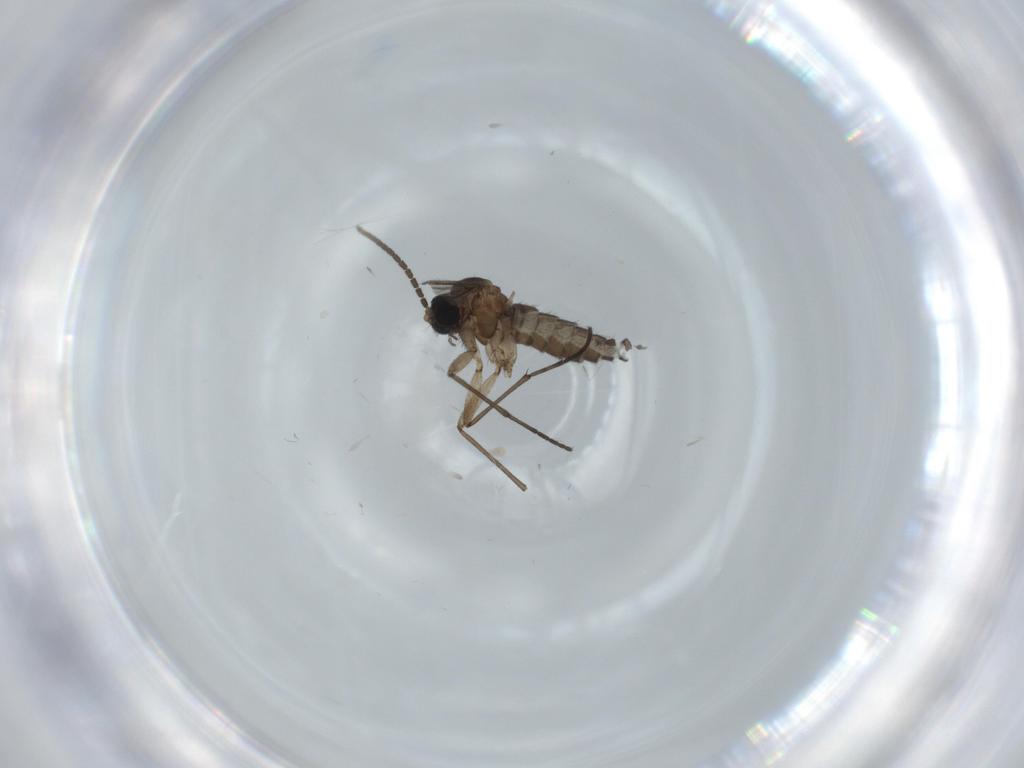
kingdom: Animalia
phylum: Arthropoda
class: Insecta
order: Diptera
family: Sciaridae
